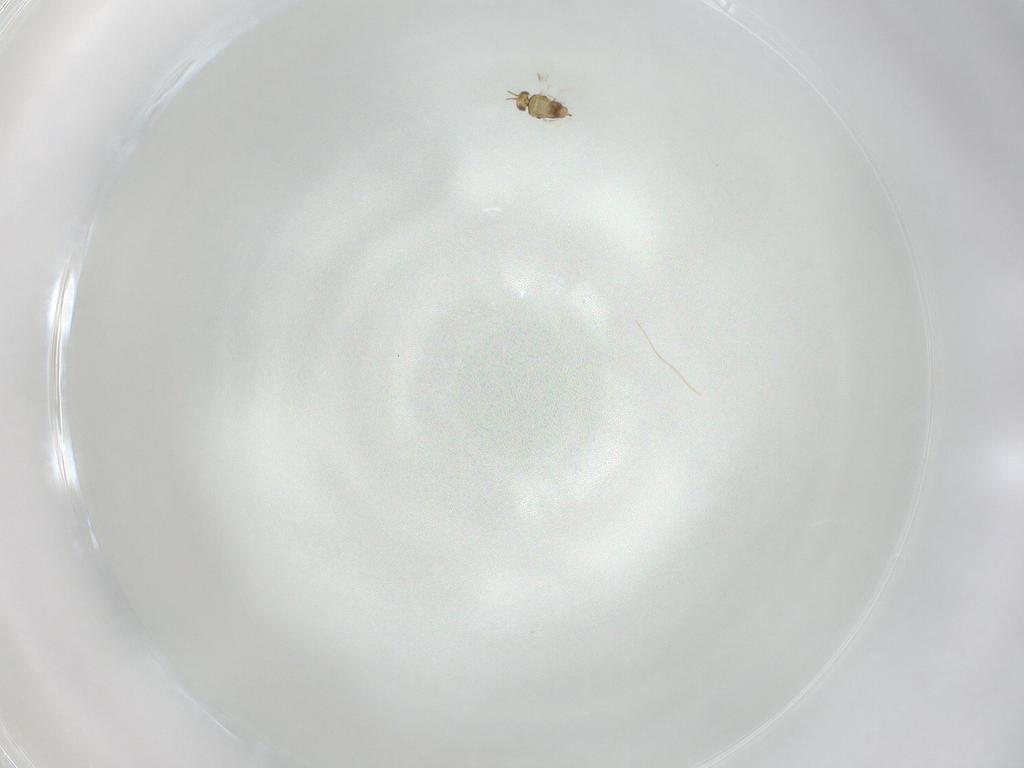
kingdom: Animalia
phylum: Arthropoda
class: Insecta
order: Hymenoptera
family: Aphelinidae
